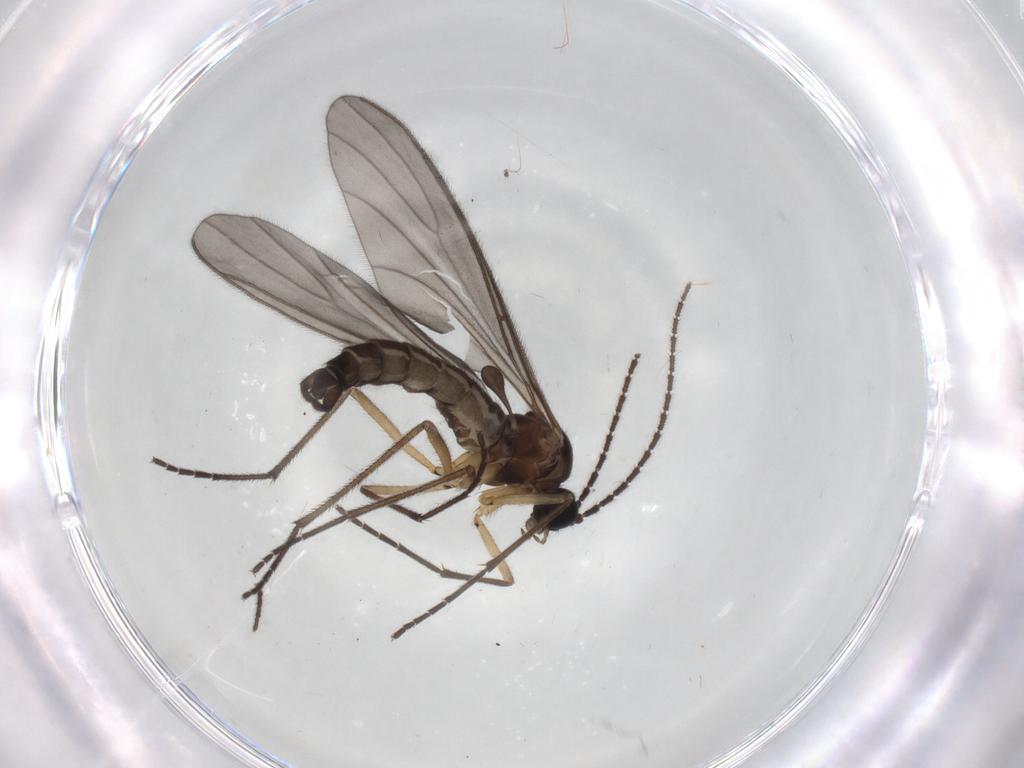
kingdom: Animalia
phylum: Arthropoda
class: Insecta
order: Diptera
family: Sciaridae
